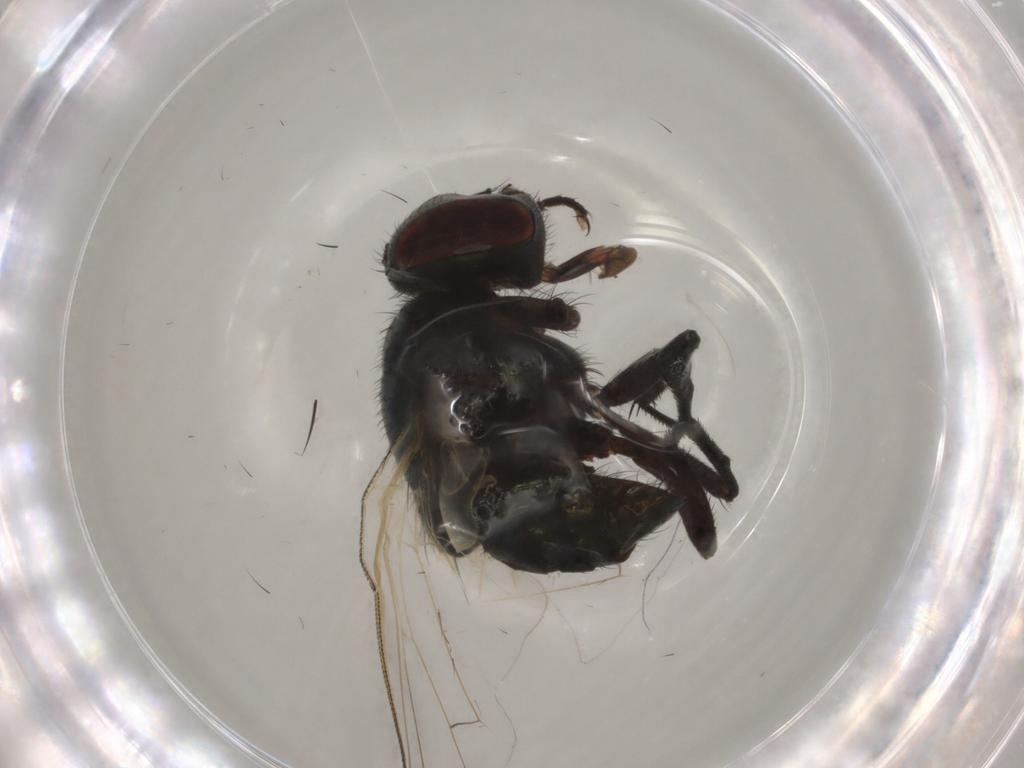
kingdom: Animalia
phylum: Arthropoda
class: Insecta
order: Diptera
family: Muscidae
